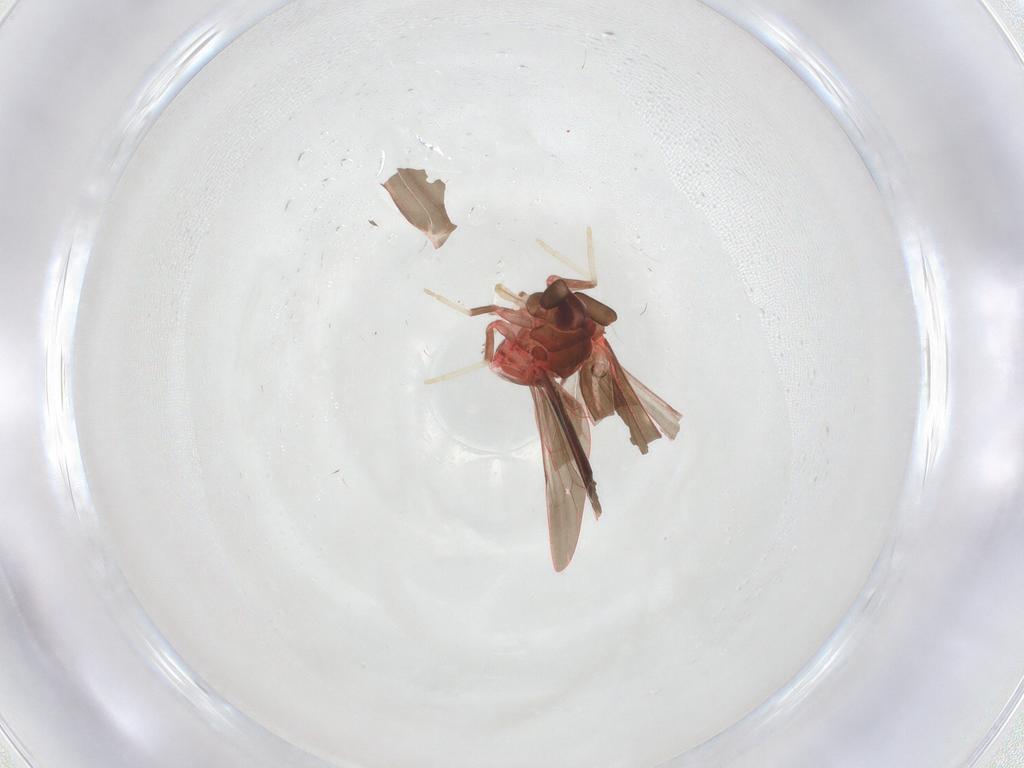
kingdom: Animalia
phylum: Arthropoda
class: Insecta
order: Hemiptera
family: Derbidae
